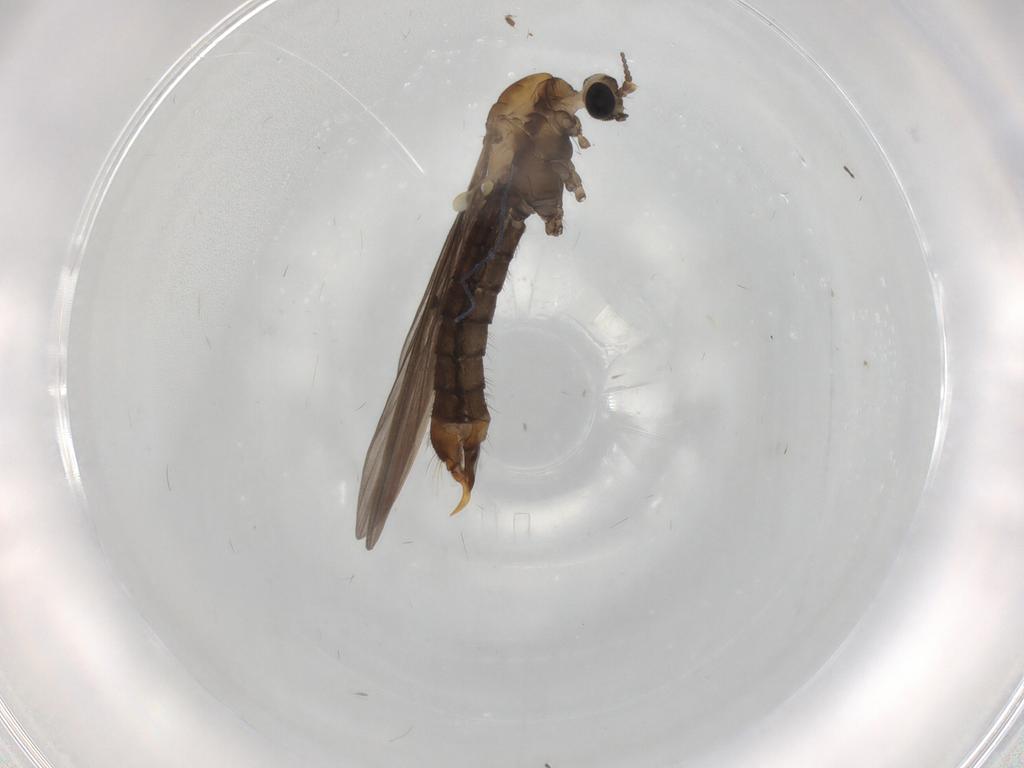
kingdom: Animalia
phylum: Arthropoda
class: Insecta
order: Diptera
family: Limoniidae
